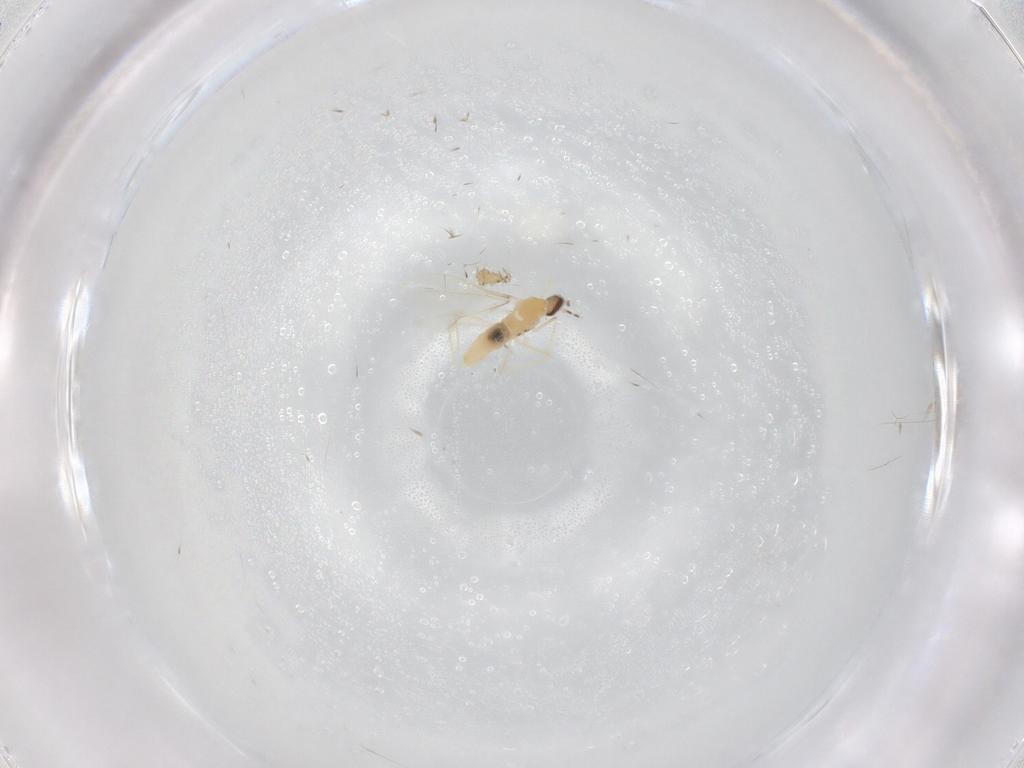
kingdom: Animalia
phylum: Arthropoda
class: Insecta
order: Diptera
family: Cecidomyiidae
